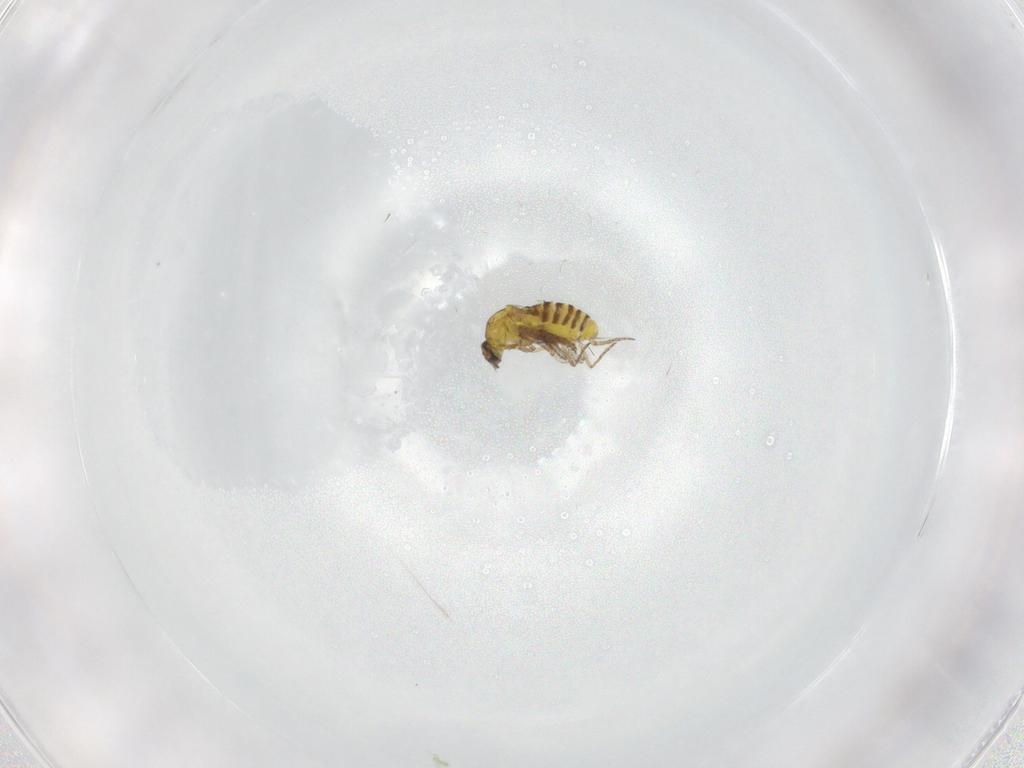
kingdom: Animalia
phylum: Arthropoda
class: Insecta
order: Diptera
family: Ceratopogonidae
